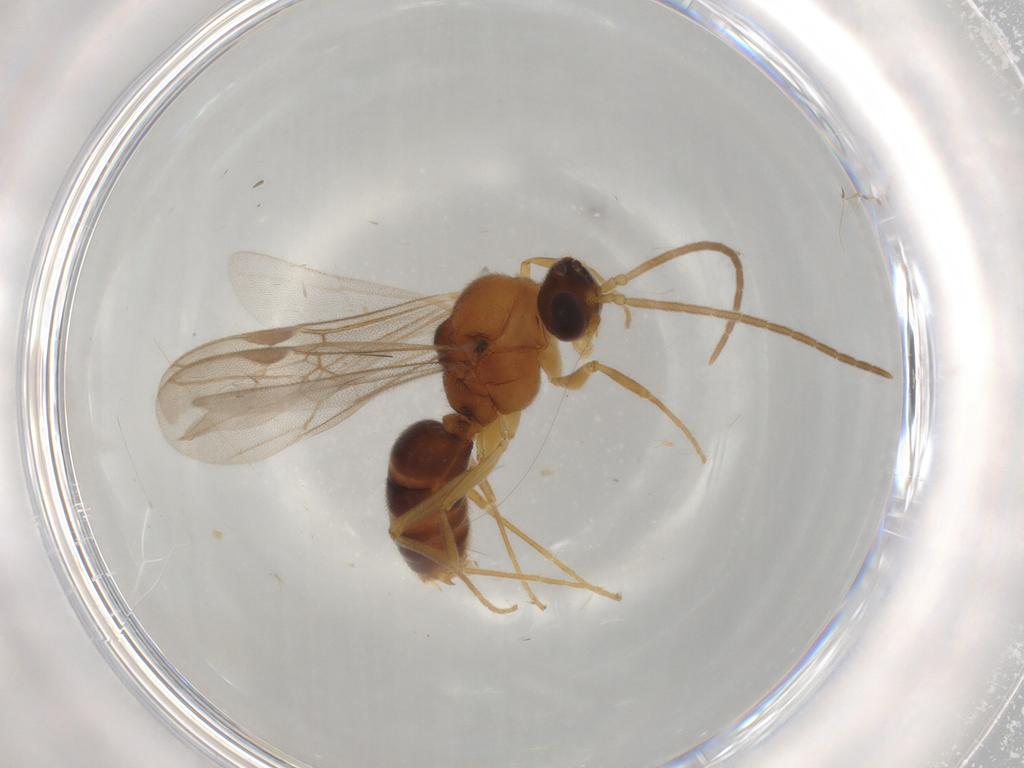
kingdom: Animalia
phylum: Arthropoda
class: Insecta
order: Hymenoptera
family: Formicidae
